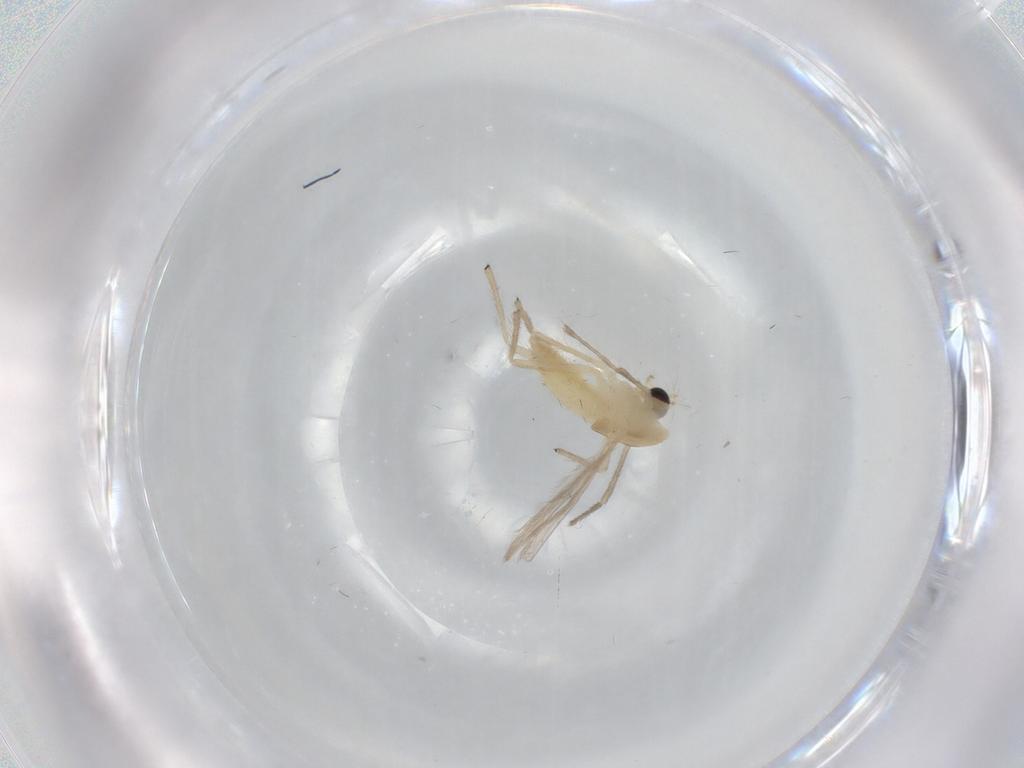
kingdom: Animalia
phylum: Arthropoda
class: Insecta
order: Diptera
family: Chironomidae
